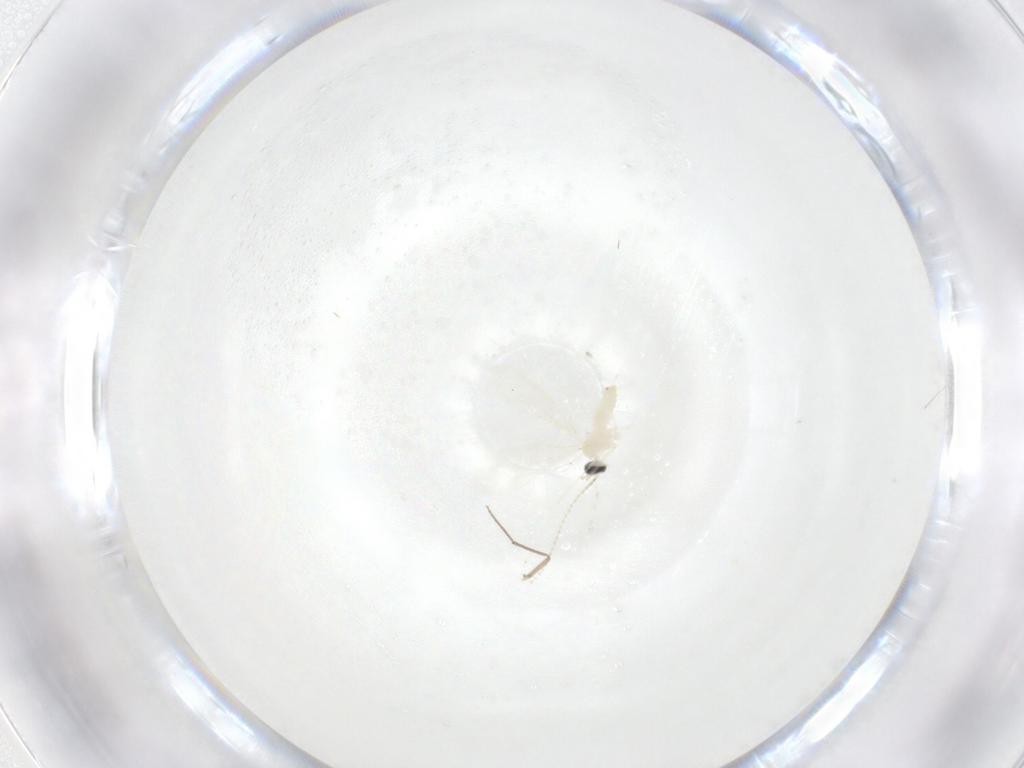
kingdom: Animalia
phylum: Arthropoda
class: Insecta
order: Diptera
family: Cecidomyiidae
